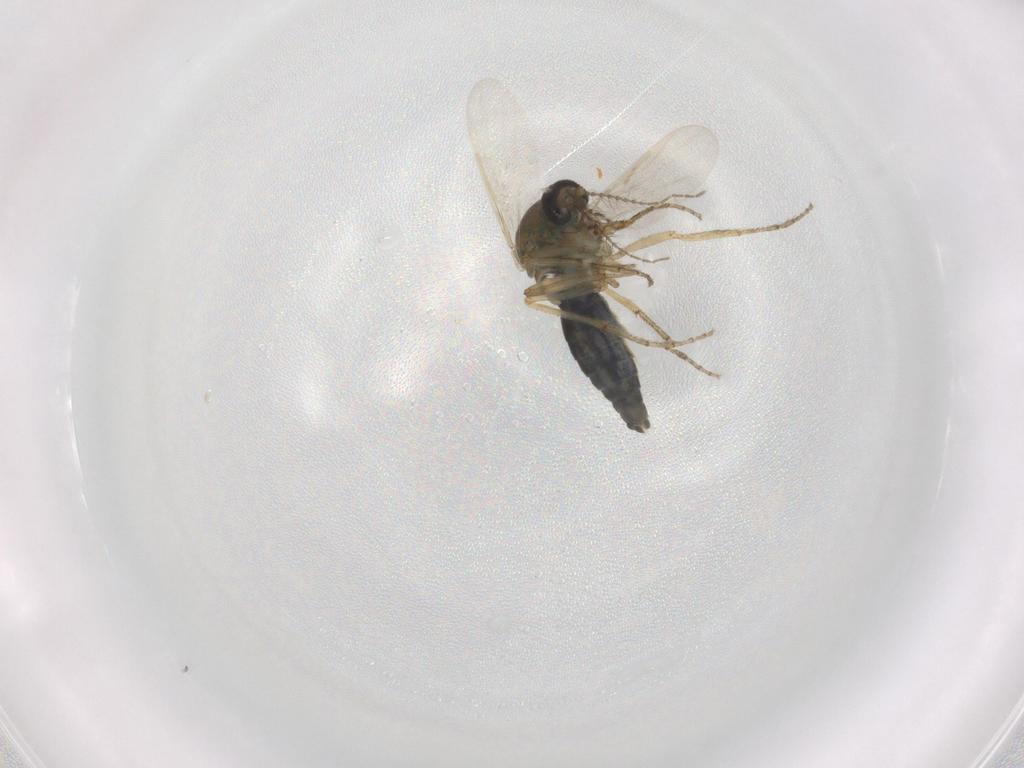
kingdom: Animalia
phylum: Arthropoda
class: Insecta
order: Diptera
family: Ceratopogonidae
